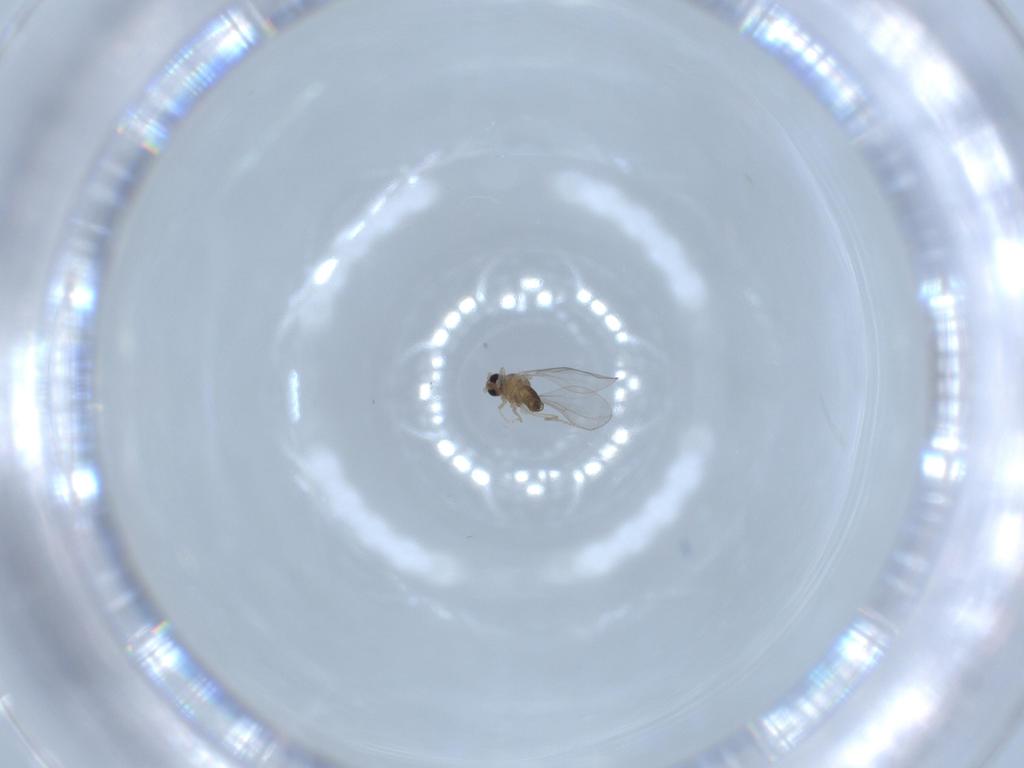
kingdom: Animalia
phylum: Arthropoda
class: Insecta
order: Diptera
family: Cecidomyiidae
